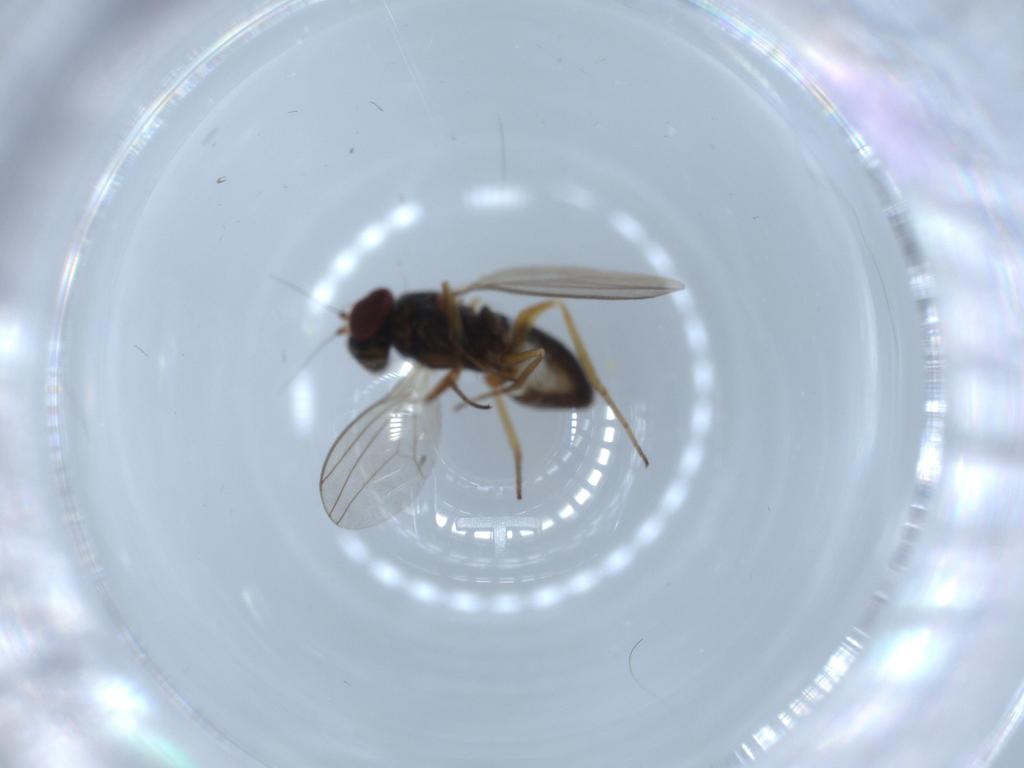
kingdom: Animalia
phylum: Arthropoda
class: Insecta
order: Diptera
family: Cecidomyiidae
